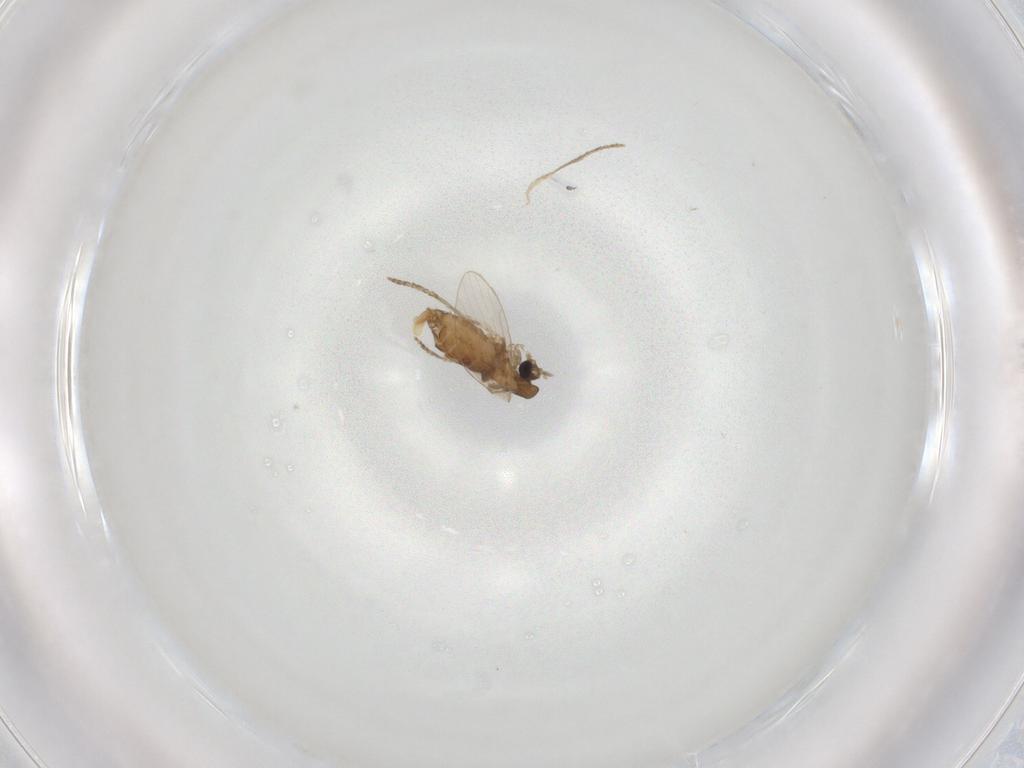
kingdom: Animalia
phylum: Arthropoda
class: Insecta
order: Diptera
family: Psychodidae
